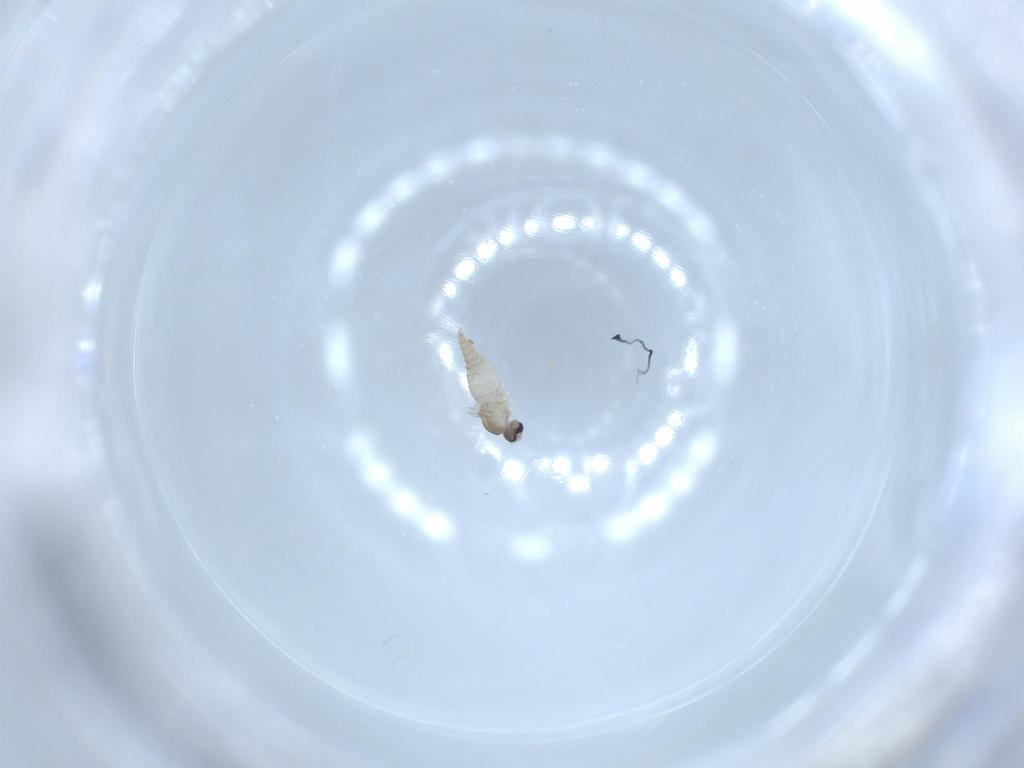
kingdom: Animalia
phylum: Arthropoda
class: Insecta
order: Diptera
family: Cecidomyiidae
